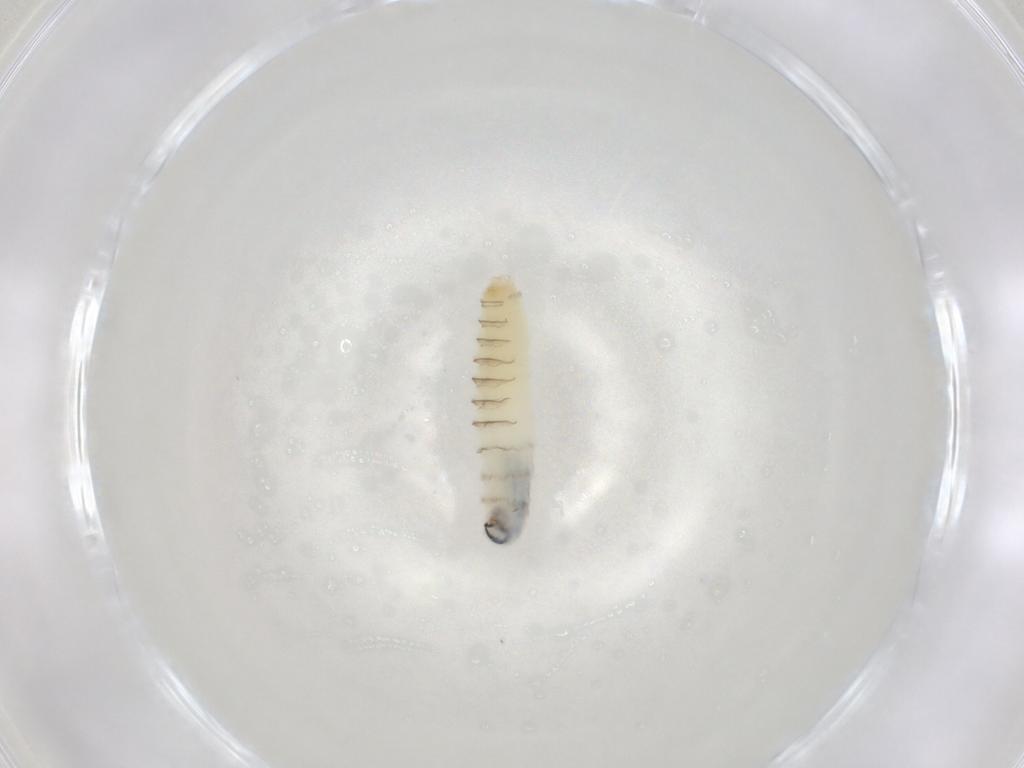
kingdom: Animalia
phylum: Arthropoda
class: Insecta
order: Diptera
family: Sarcophagidae
